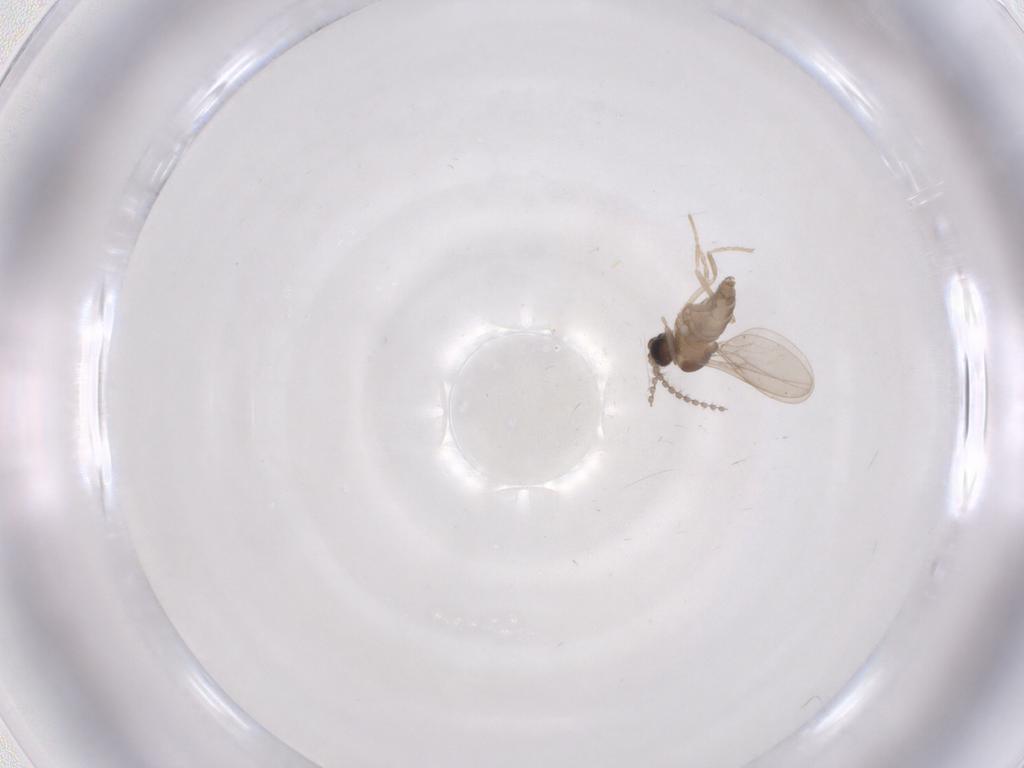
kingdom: Animalia
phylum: Arthropoda
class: Insecta
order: Diptera
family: Cecidomyiidae
